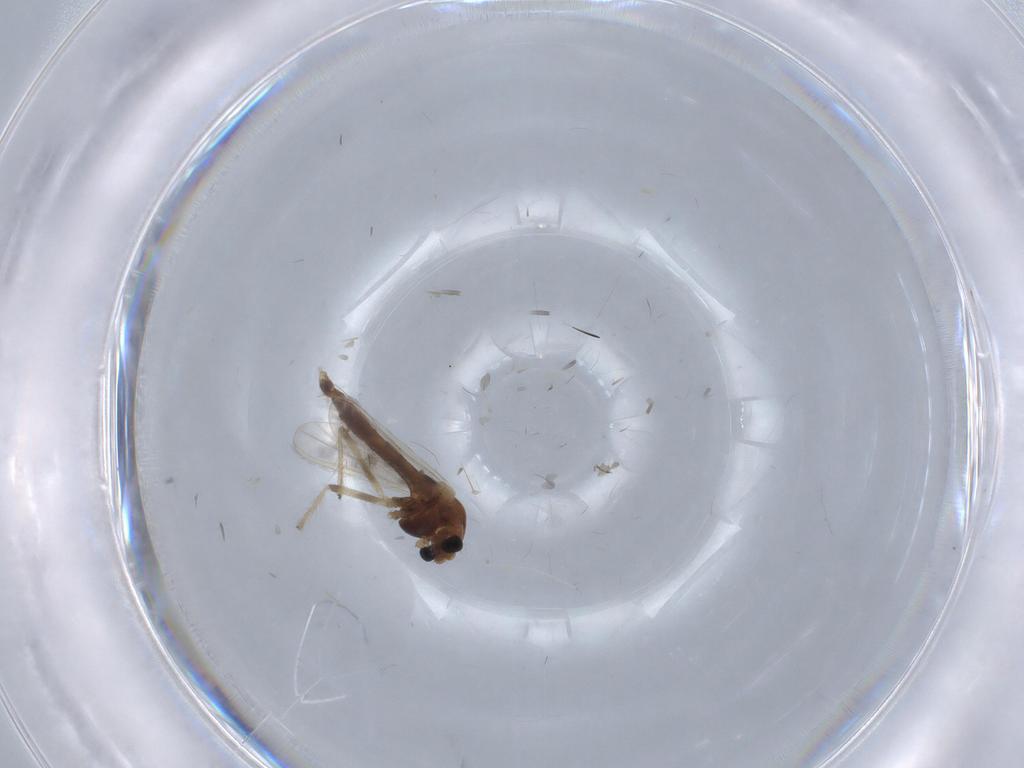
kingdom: Animalia
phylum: Arthropoda
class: Insecta
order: Diptera
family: Chironomidae
